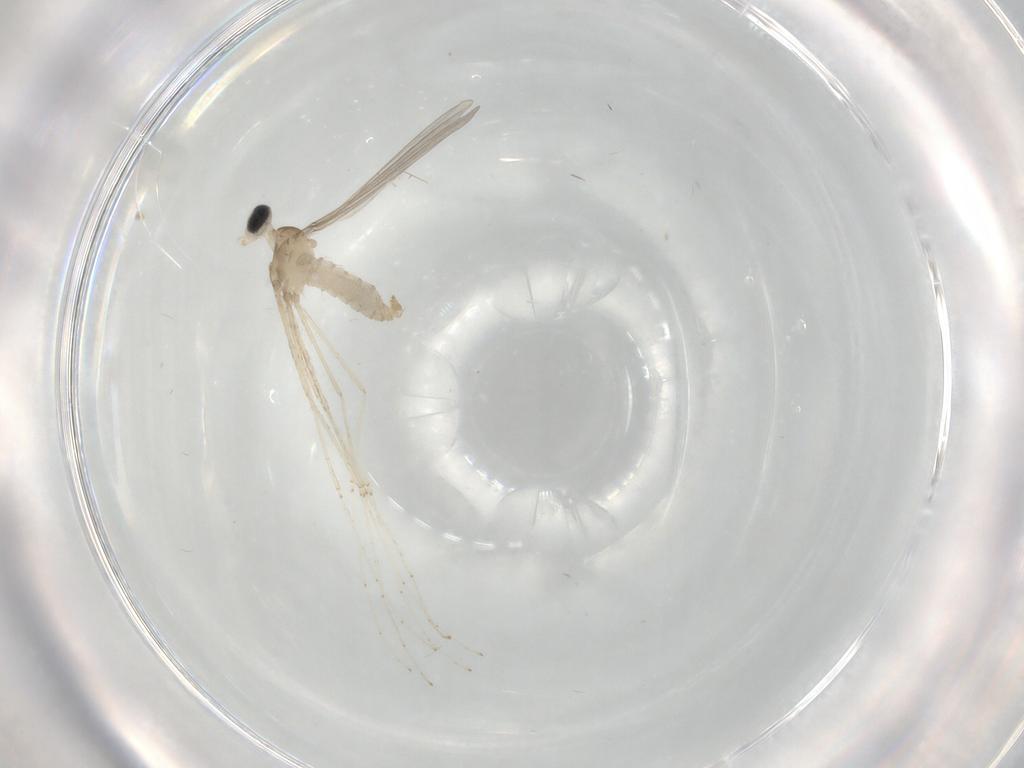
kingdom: Animalia
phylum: Arthropoda
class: Insecta
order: Diptera
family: Cecidomyiidae
